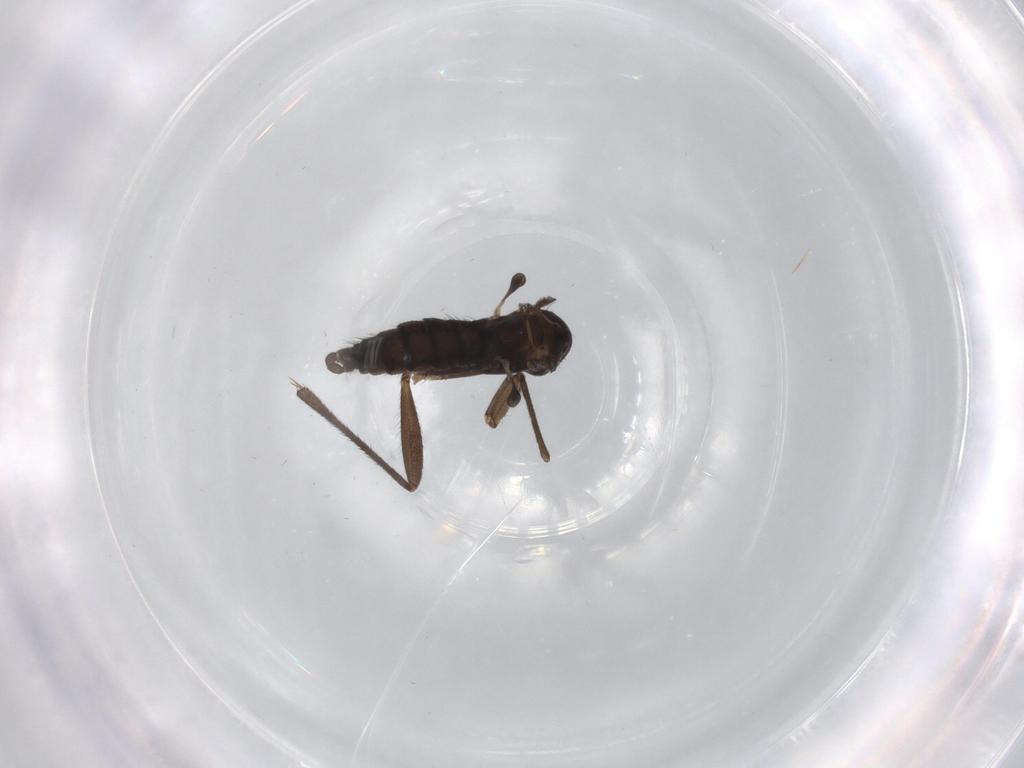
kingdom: Animalia
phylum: Arthropoda
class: Insecta
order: Diptera
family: Sciaridae
